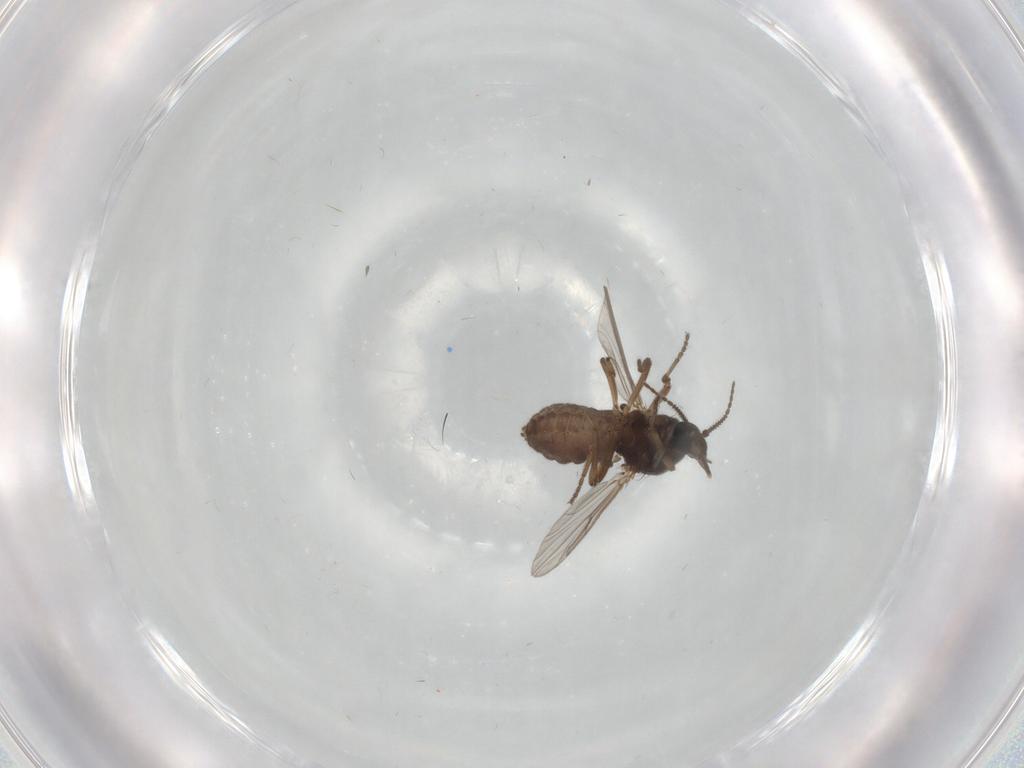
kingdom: Animalia
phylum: Arthropoda
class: Insecta
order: Diptera
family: Ceratopogonidae
